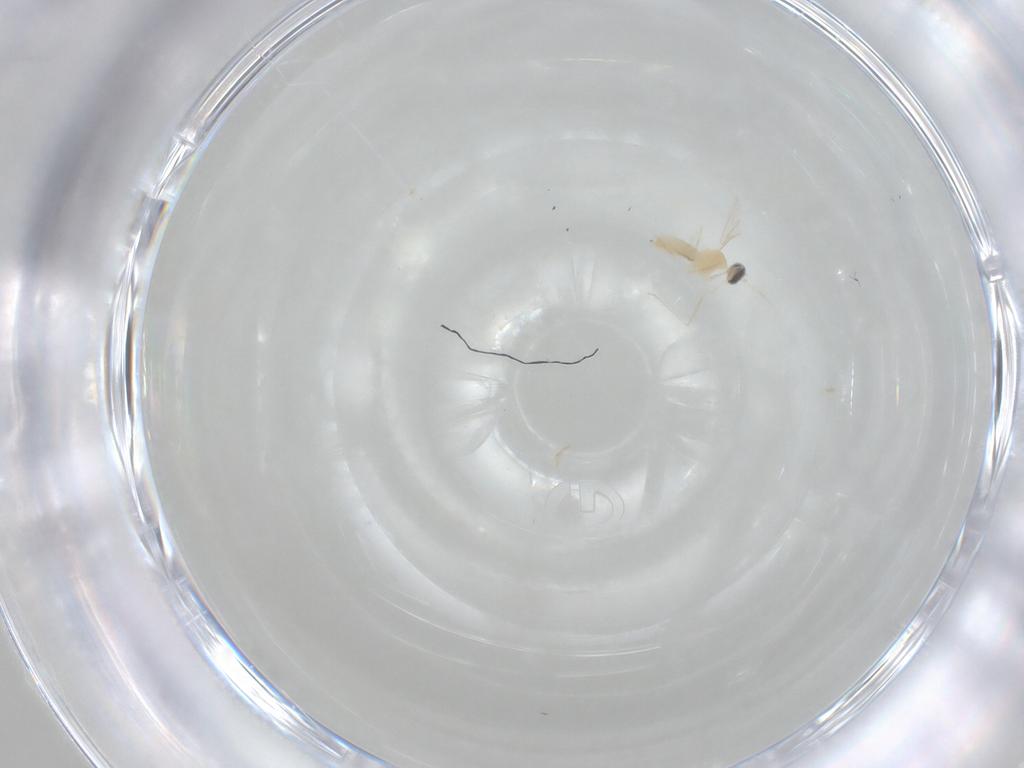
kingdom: Animalia
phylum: Arthropoda
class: Insecta
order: Diptera
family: Cecidomyiidae
